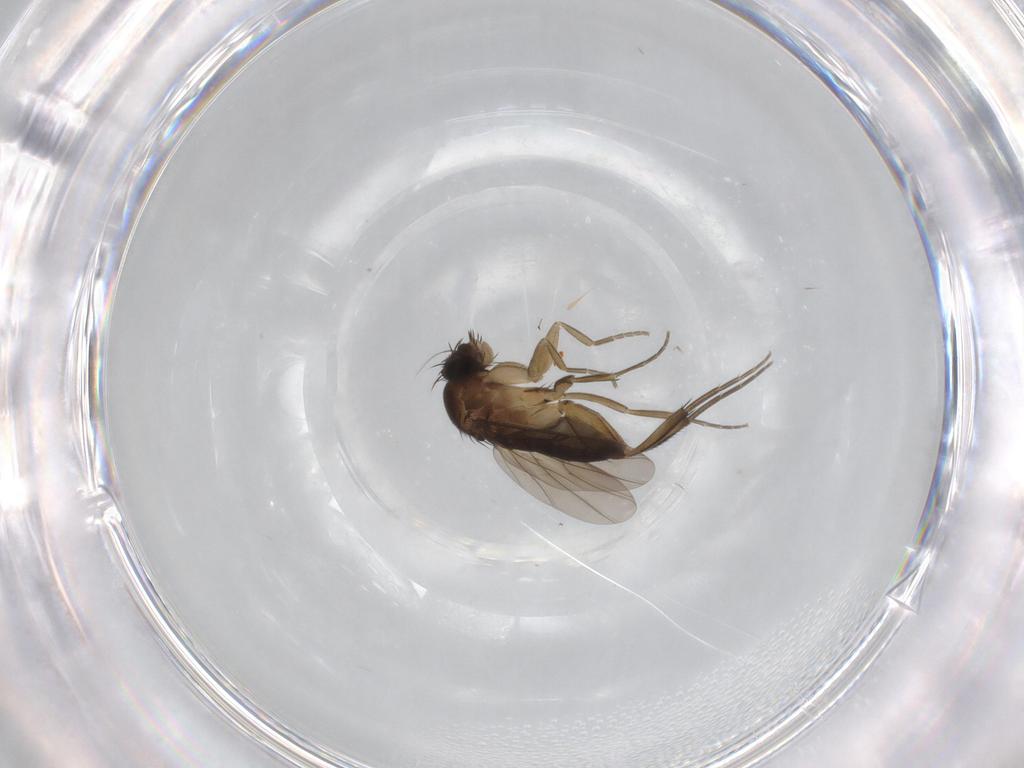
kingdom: Animalia
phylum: Arthropoda
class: Insecta
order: Diptera
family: Phoridae
